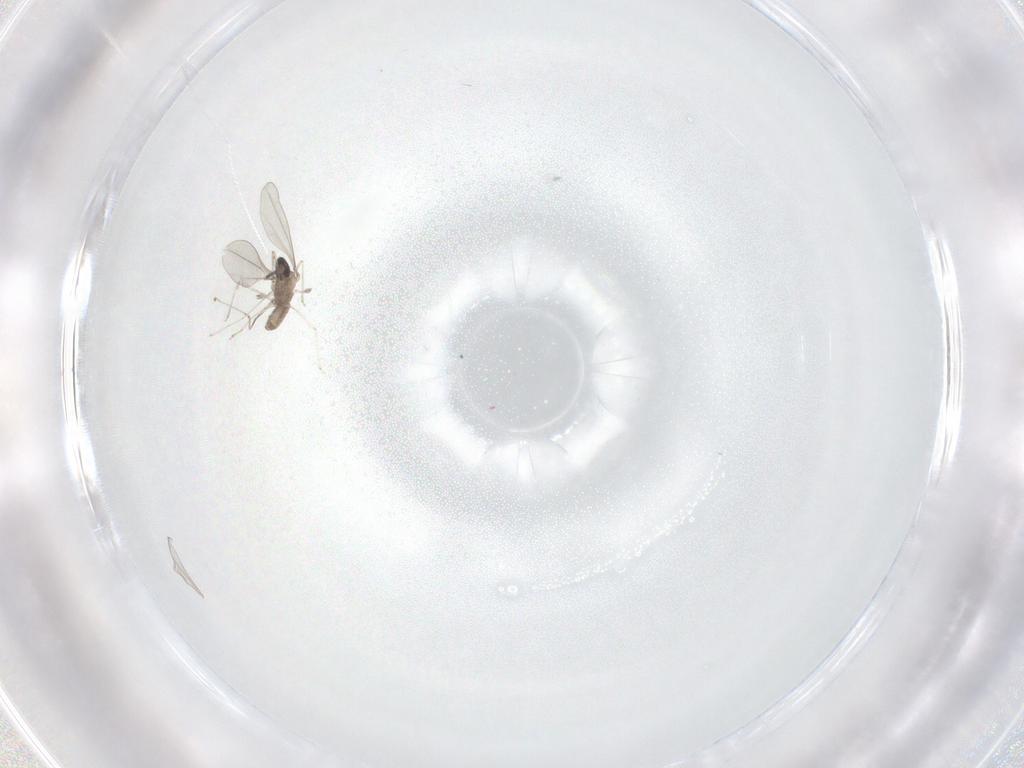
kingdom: Animalia
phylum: Arthropoda
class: Insecta
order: Diptera
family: Cecidomyiidae
